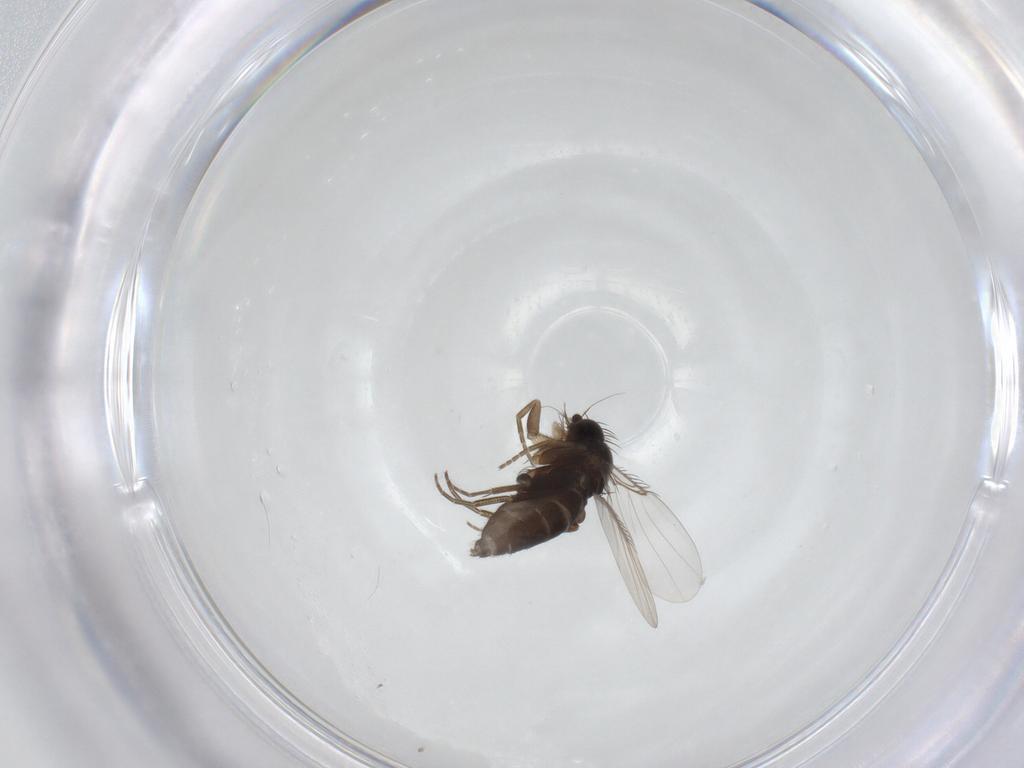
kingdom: Animalia
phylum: Arthropoda
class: Insecta
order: Diptera
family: Phoridae
